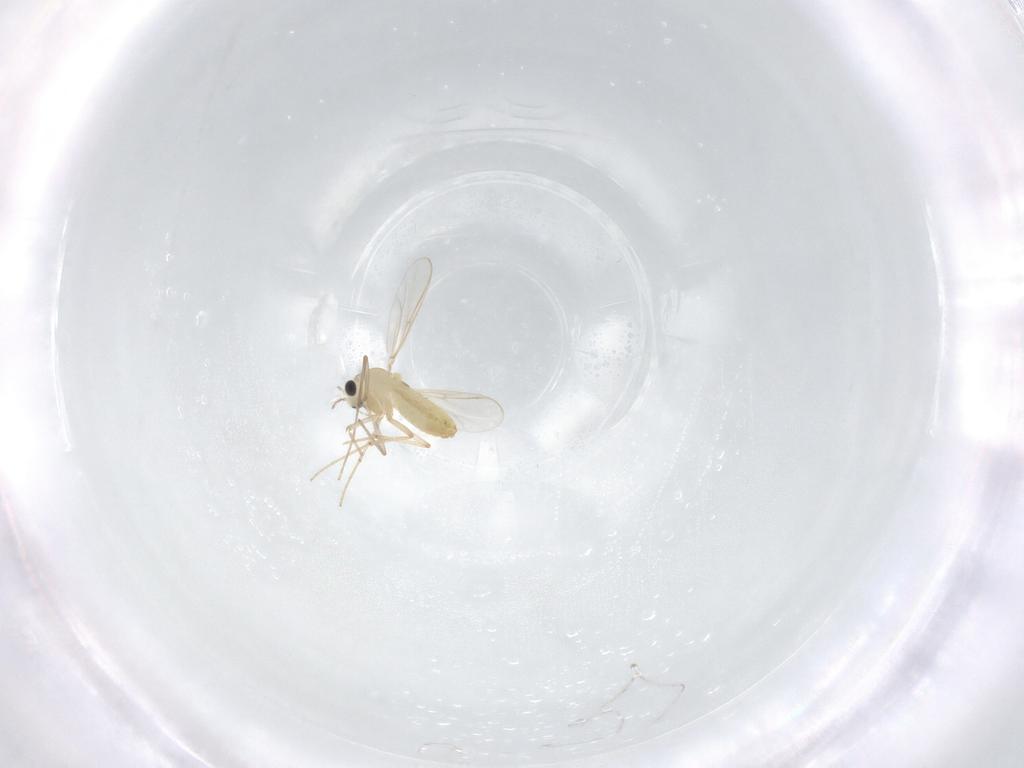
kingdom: Animalia
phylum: Arthropoda
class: Insecta
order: Diptera
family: Chironomidae
